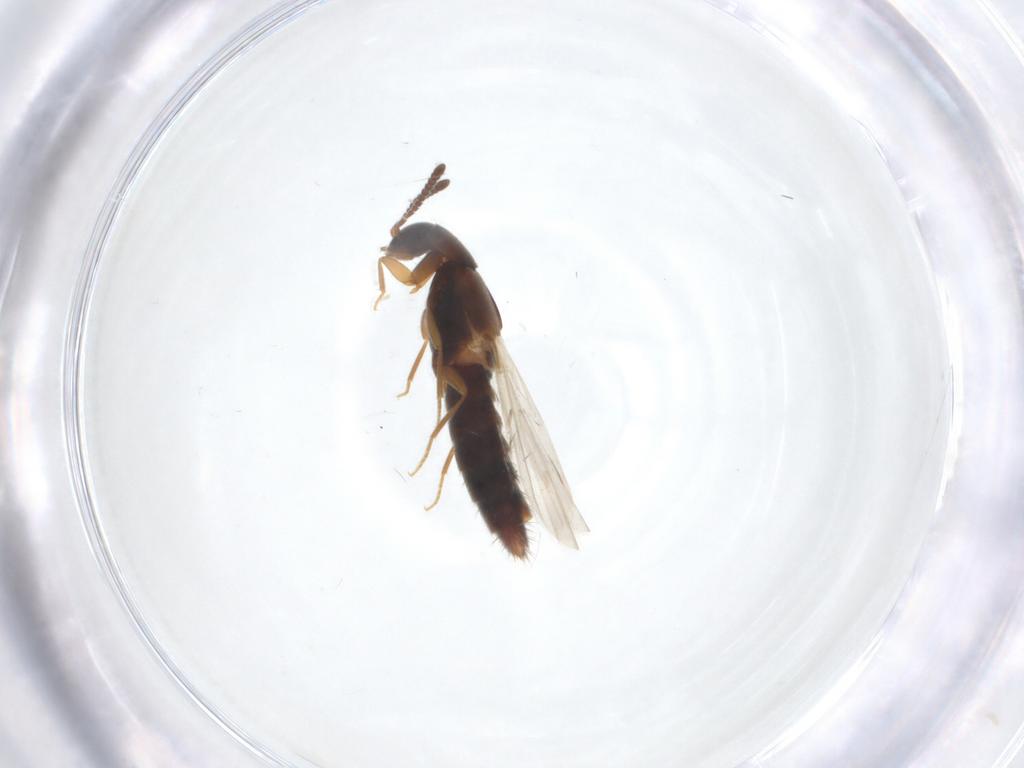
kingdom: Animalia
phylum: Arthropoda
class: Insecta
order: Coleoptera
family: Staphylinidae
